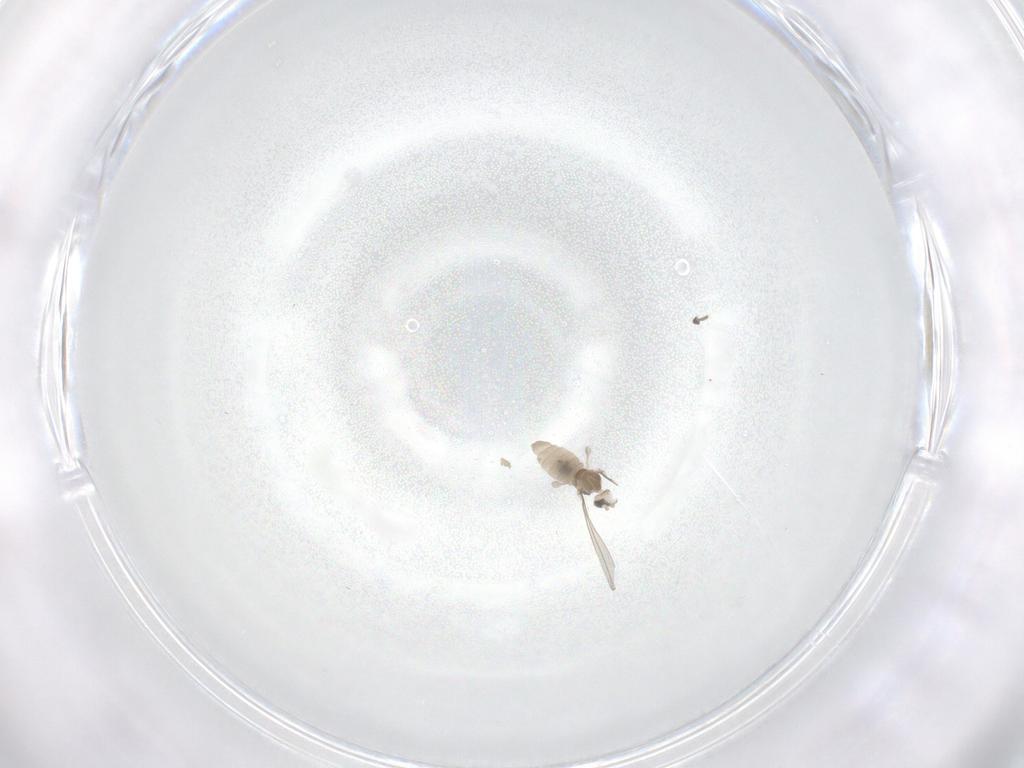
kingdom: Animalia
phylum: Arthropoda
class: Insecta
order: Diptera
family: Limoniidae
